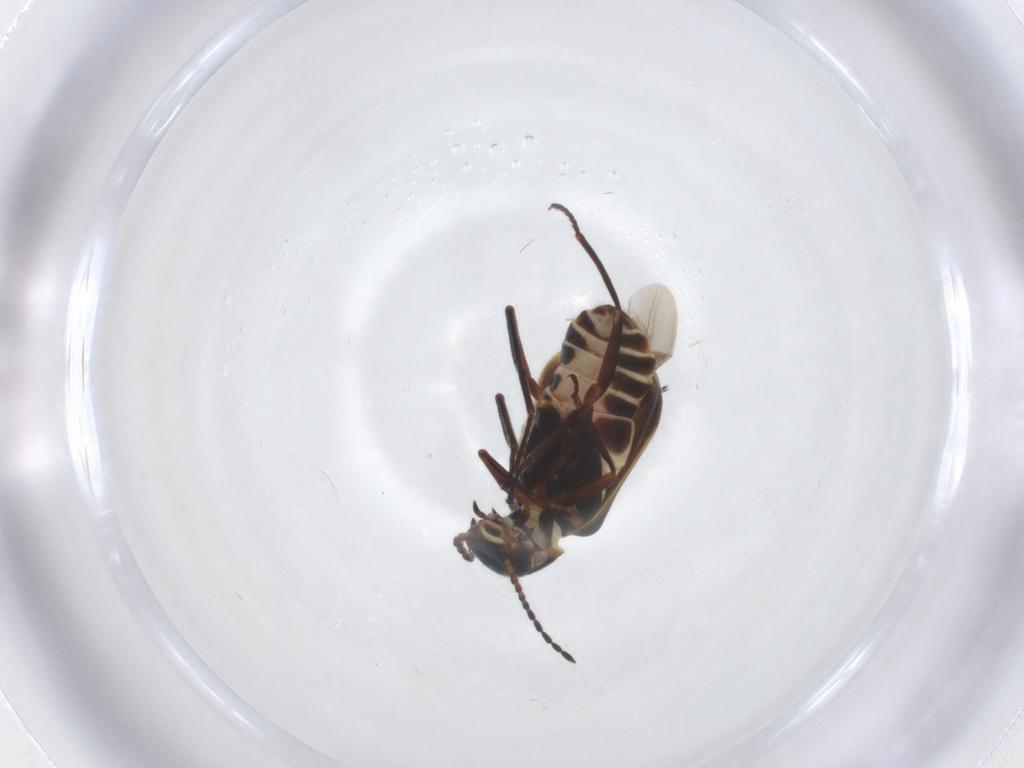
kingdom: Animalia
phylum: Arthropoda
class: Insecta
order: Coleoptera
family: Melyridae
